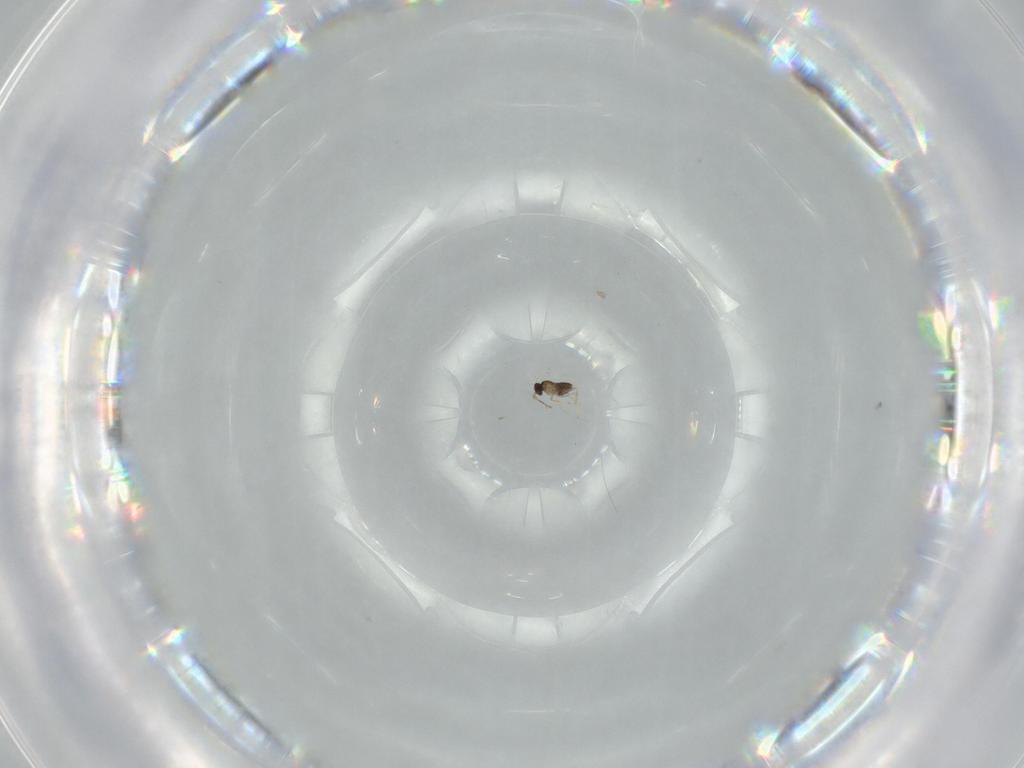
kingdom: Animalia
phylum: Arthropoda
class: Insecta
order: Hymenoptera
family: Ichneumonidae
